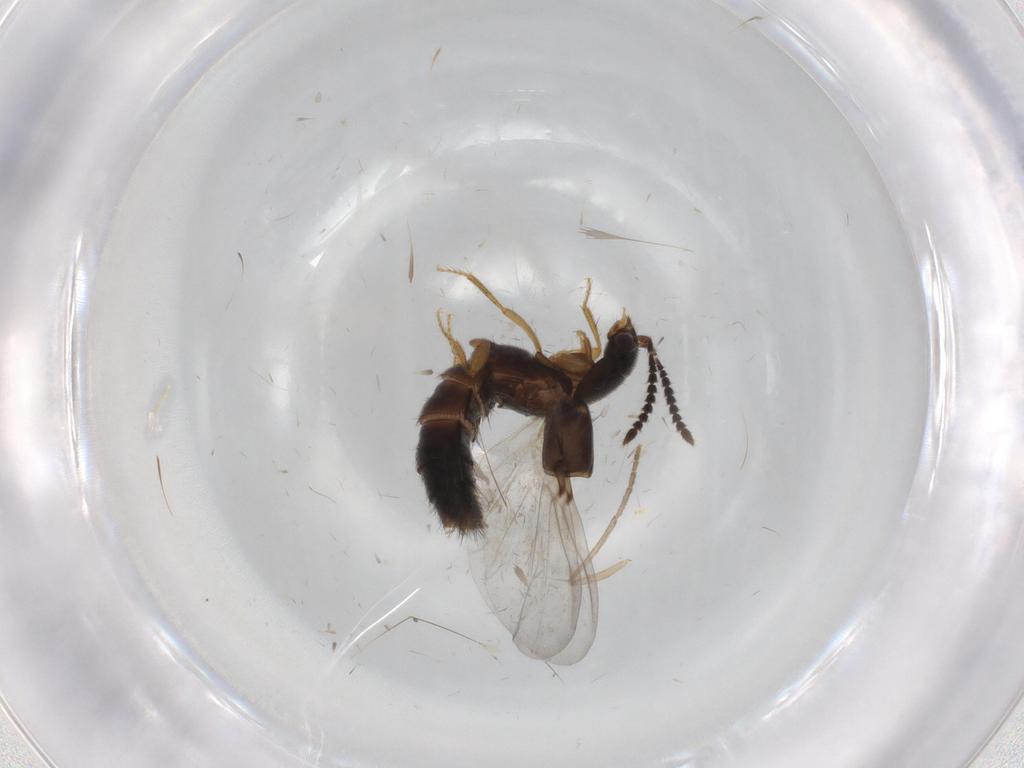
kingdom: Animalia
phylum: Arthropoda
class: Insecta
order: Coleoptera
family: Staphylinidae
